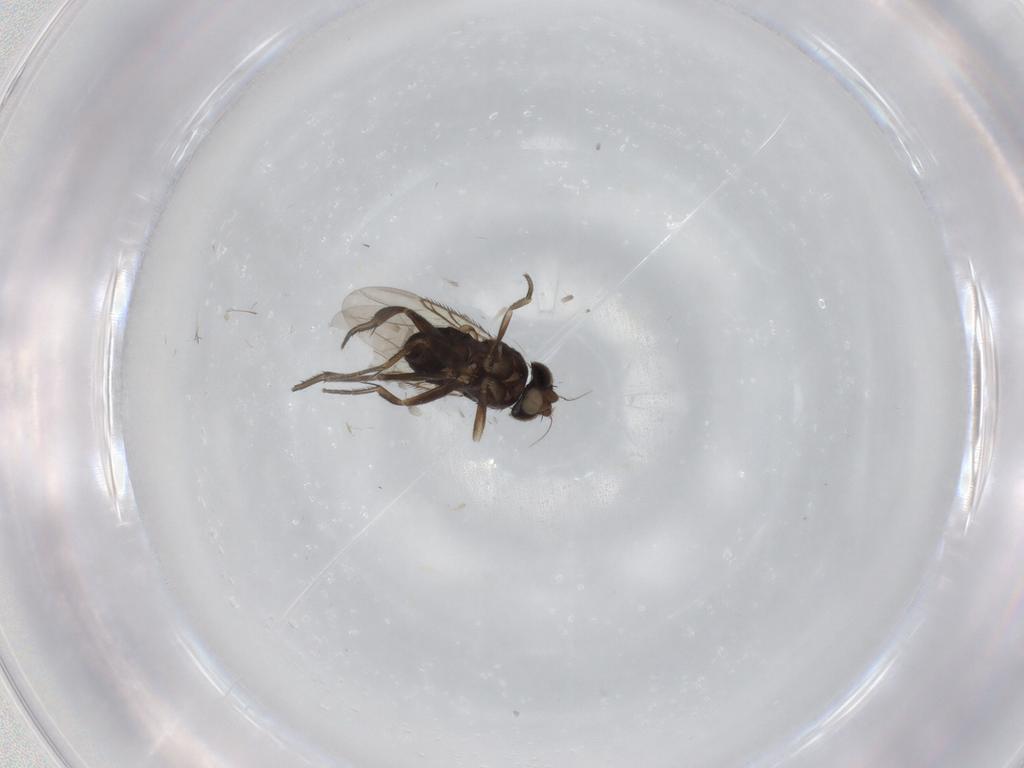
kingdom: Animalia
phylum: Arthropoda
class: Insecta
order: Diptera
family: Phoridae
